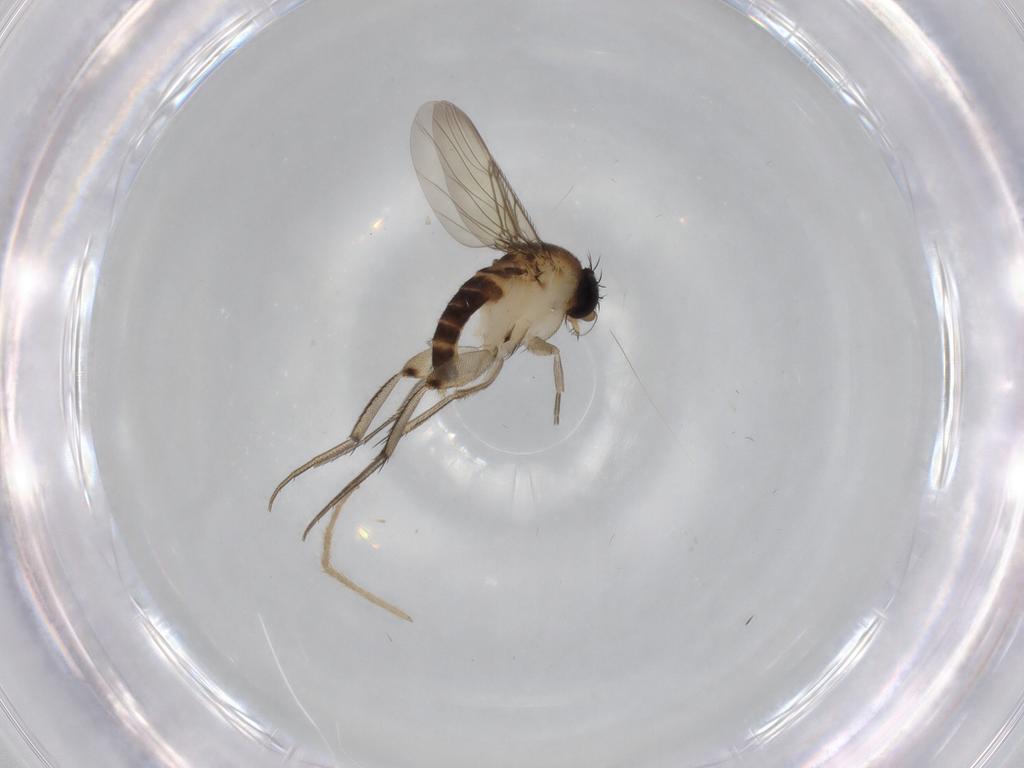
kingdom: Animalia
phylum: Arthropoda
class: Insecta
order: Diptera
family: Phoridae
